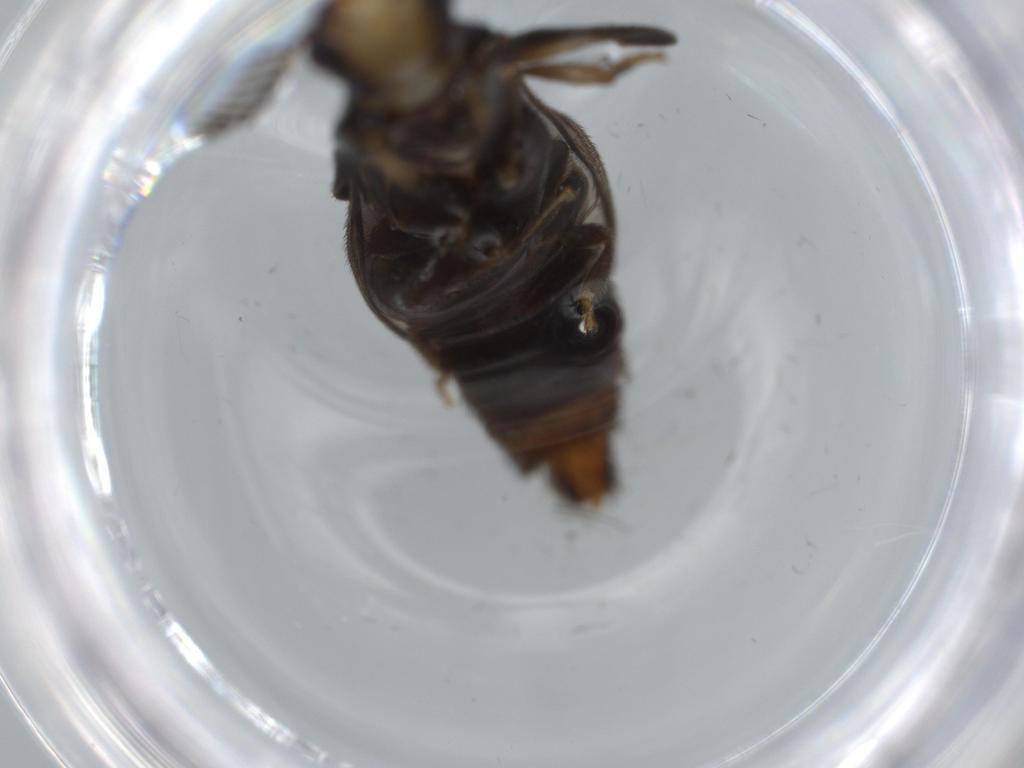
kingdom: Animalia
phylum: Arthropoda
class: Insecta
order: Coleoptera
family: Phengodidae
